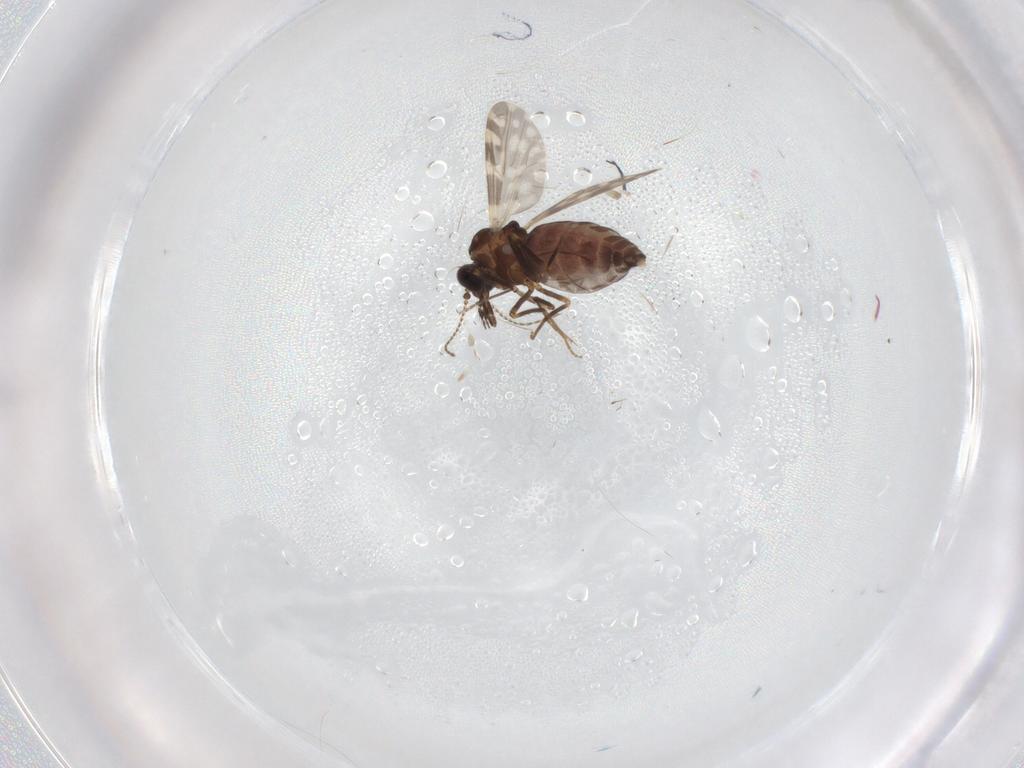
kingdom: Animalia
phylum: Arthropoda
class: Insecta
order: Diptera
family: Ceratopogonidae
